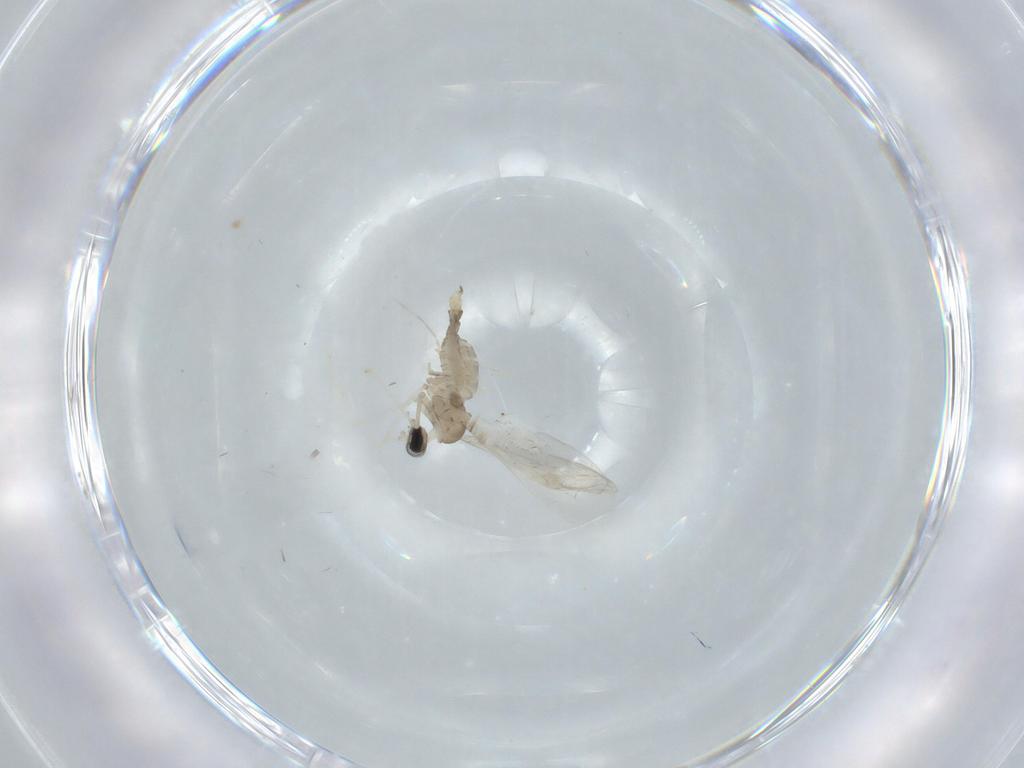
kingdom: Animalia
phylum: Arthropoda
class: Insecta
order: Diptera
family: Cecidomyiidae
